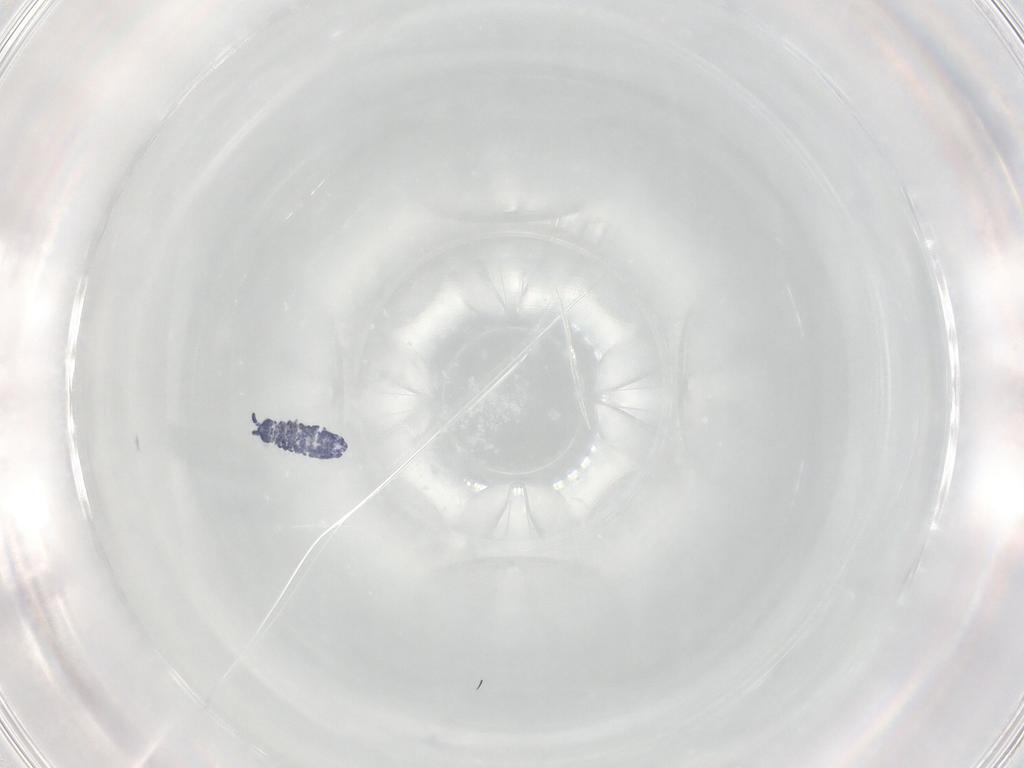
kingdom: Animalia
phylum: Arthropoda
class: Collembola
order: Poduromorpha
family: Hypogastruridae
